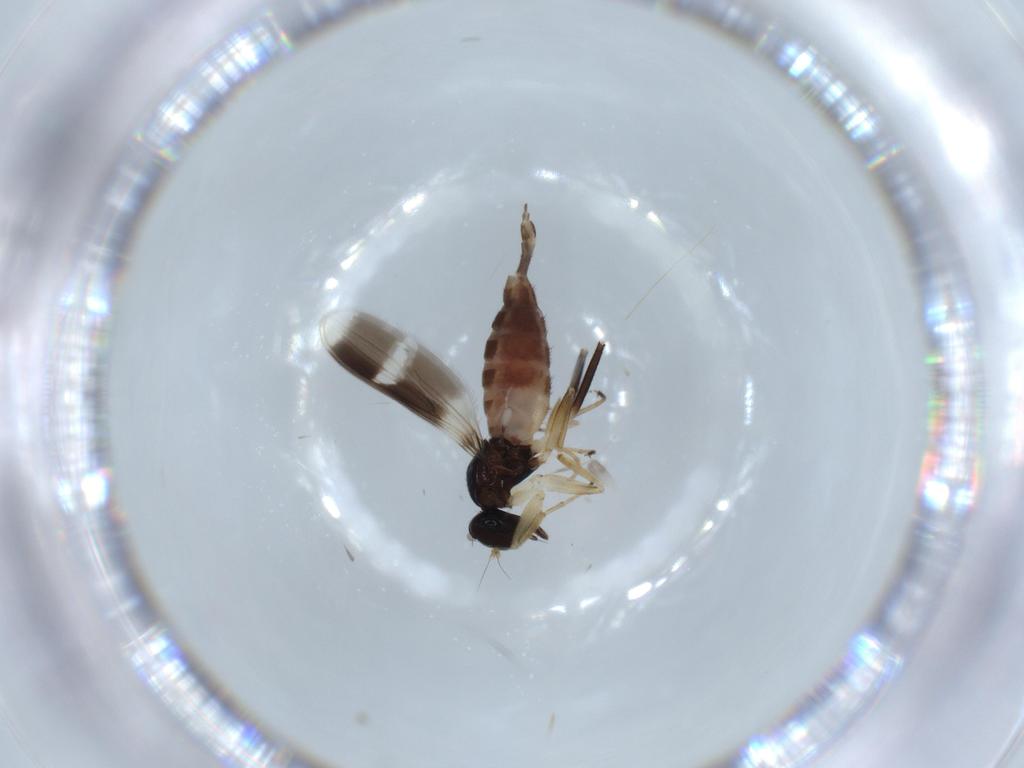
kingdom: Animalia
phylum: Arthropoda
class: Insecta
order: Diptera
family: Hybotidae
